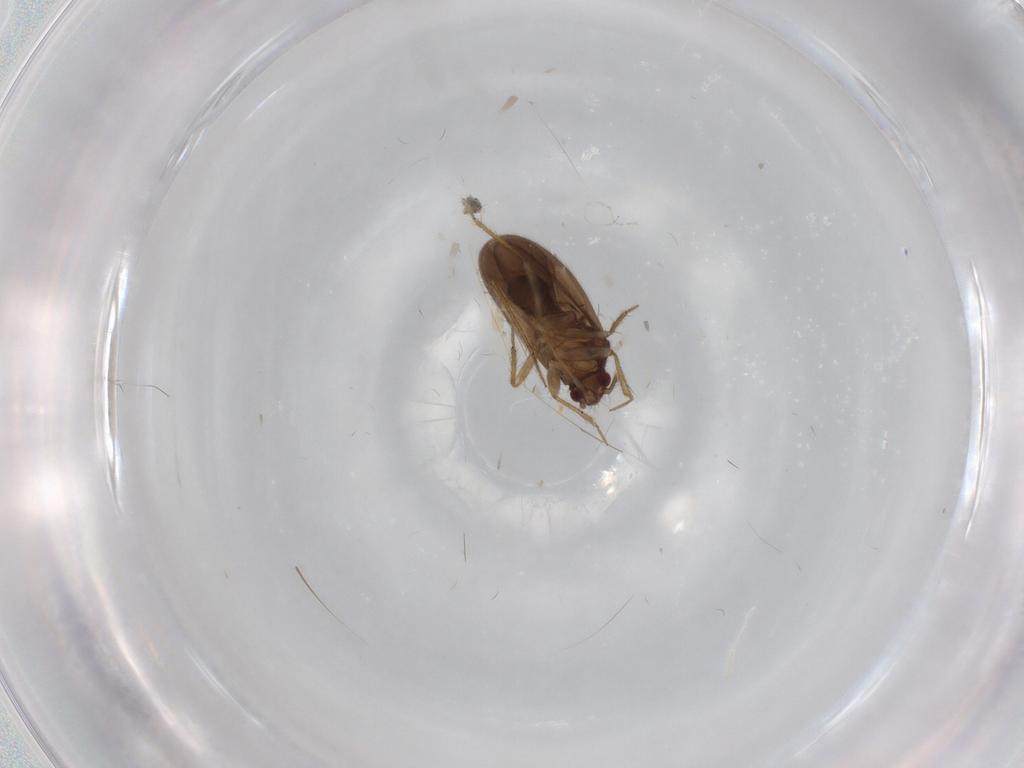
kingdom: Animalia
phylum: Arthropoda
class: Insecta
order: Hemiptera
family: Ceratocombidae
